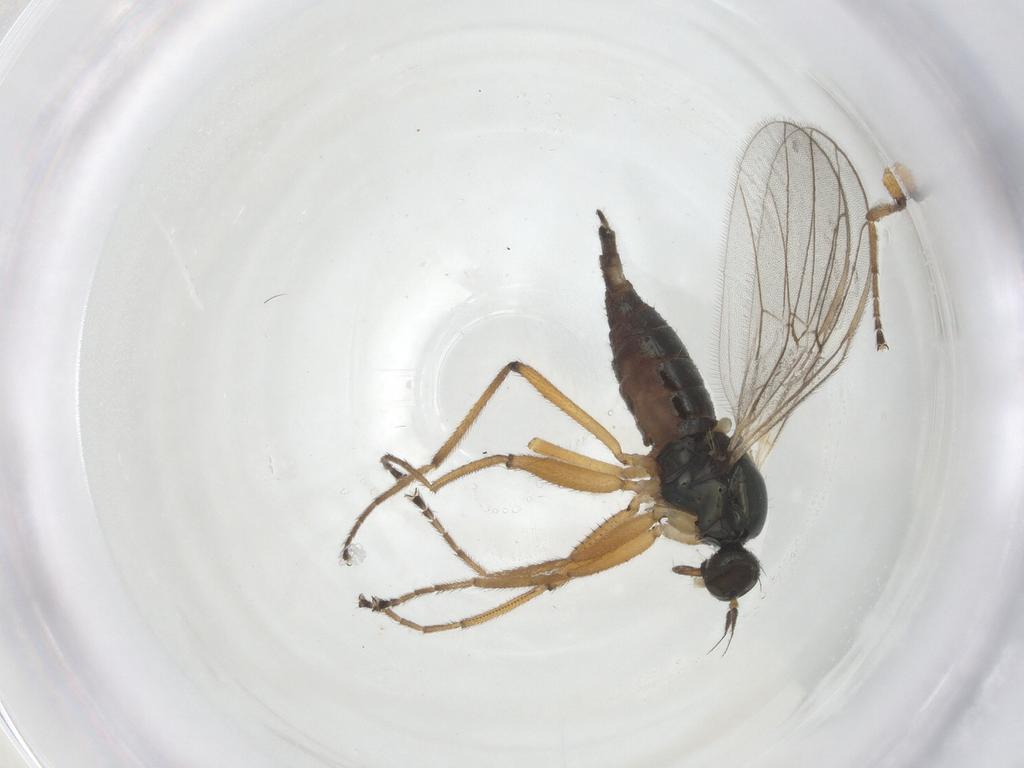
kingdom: Animalia
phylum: Arthropoda
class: Insecta
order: Diptera
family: Hybotidae
